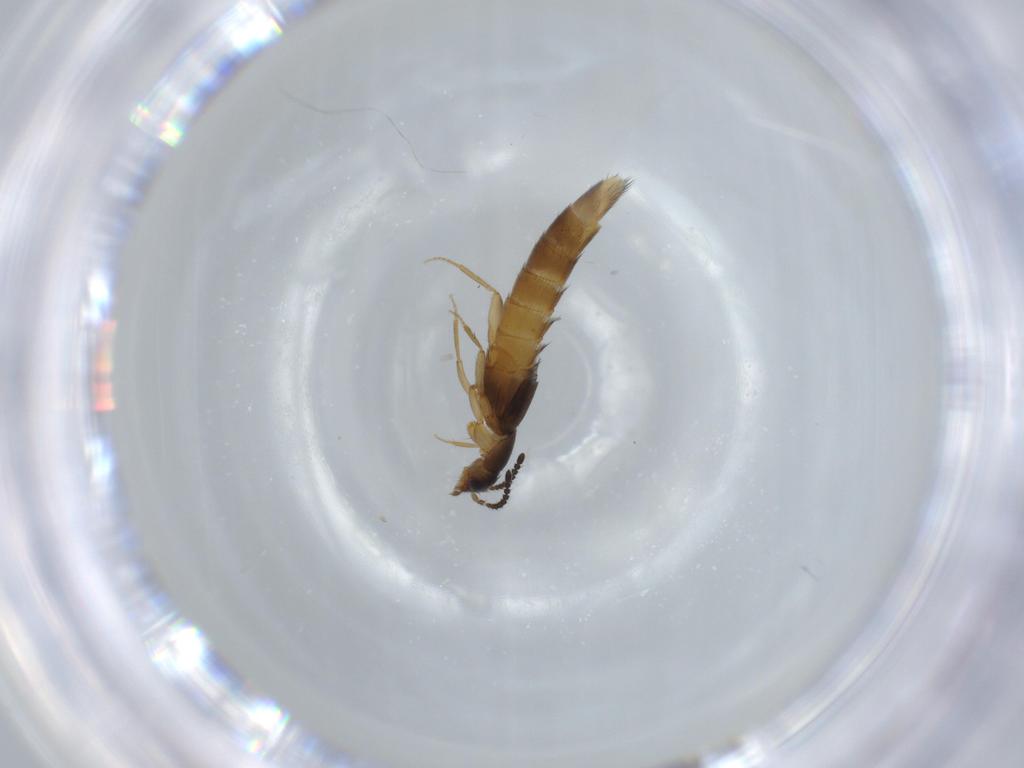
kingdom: Animalia
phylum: Arthropoda
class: Insecta
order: Coleoptera
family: Staphylinidae
